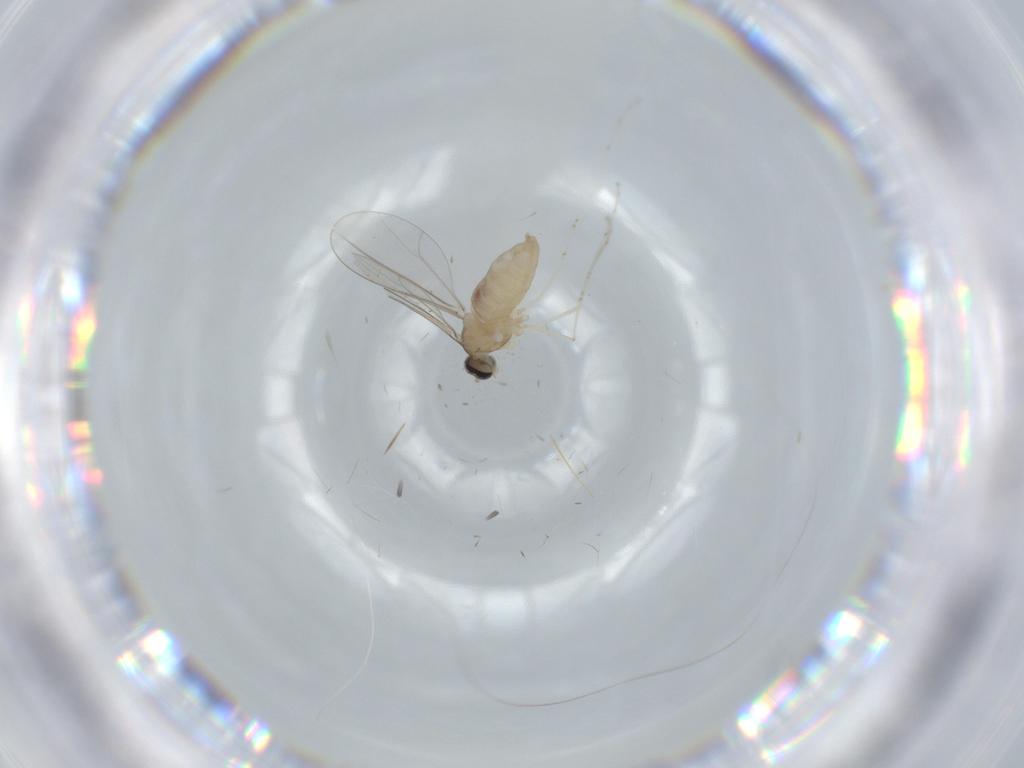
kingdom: Animalia
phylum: Arthropoda
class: Insecta
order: Diptera
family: Cecidomyiidae
